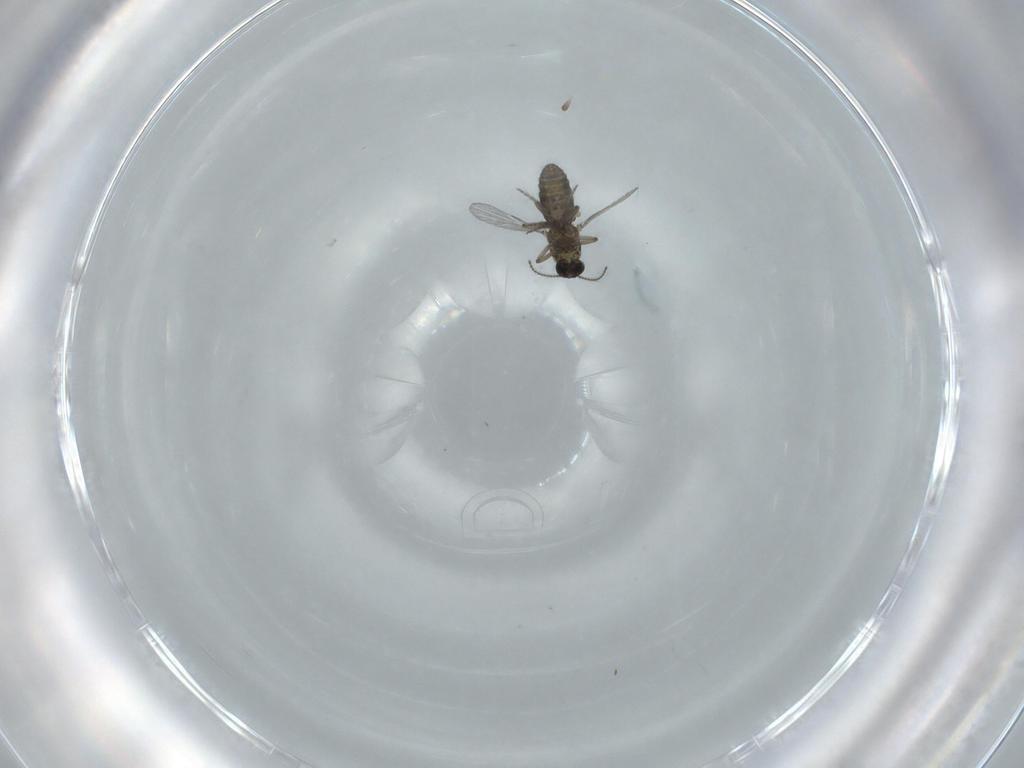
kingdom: Animalia
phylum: Arthropoda
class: Insecta
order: Diptera
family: Ceratopogonidae
